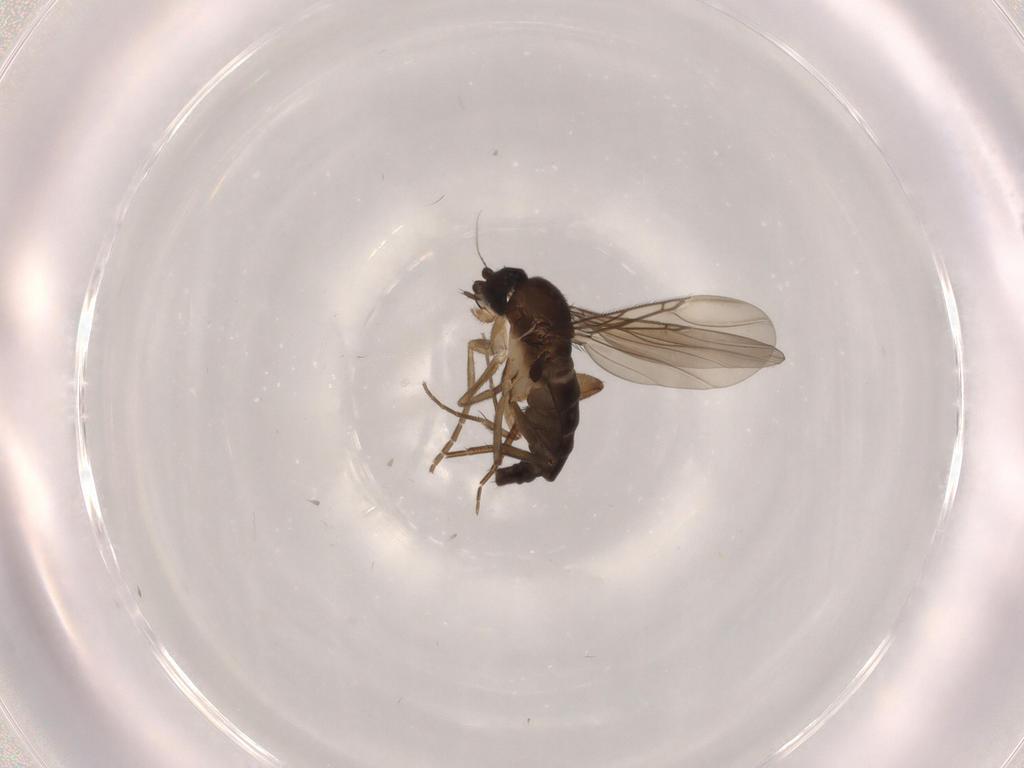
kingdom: Animalia
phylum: Arthropoda
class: Insecta
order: Diptera
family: Phoridae
